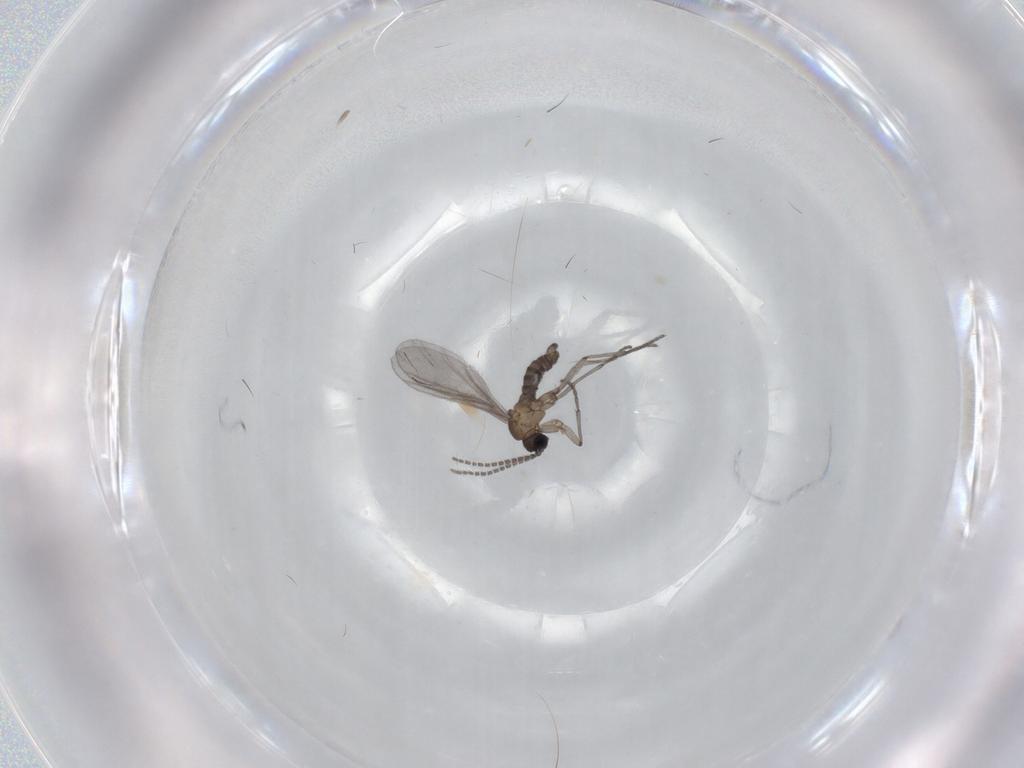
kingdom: Animalia
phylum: Arthropoda
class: Insecta
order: Diptera
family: Sciaridae
